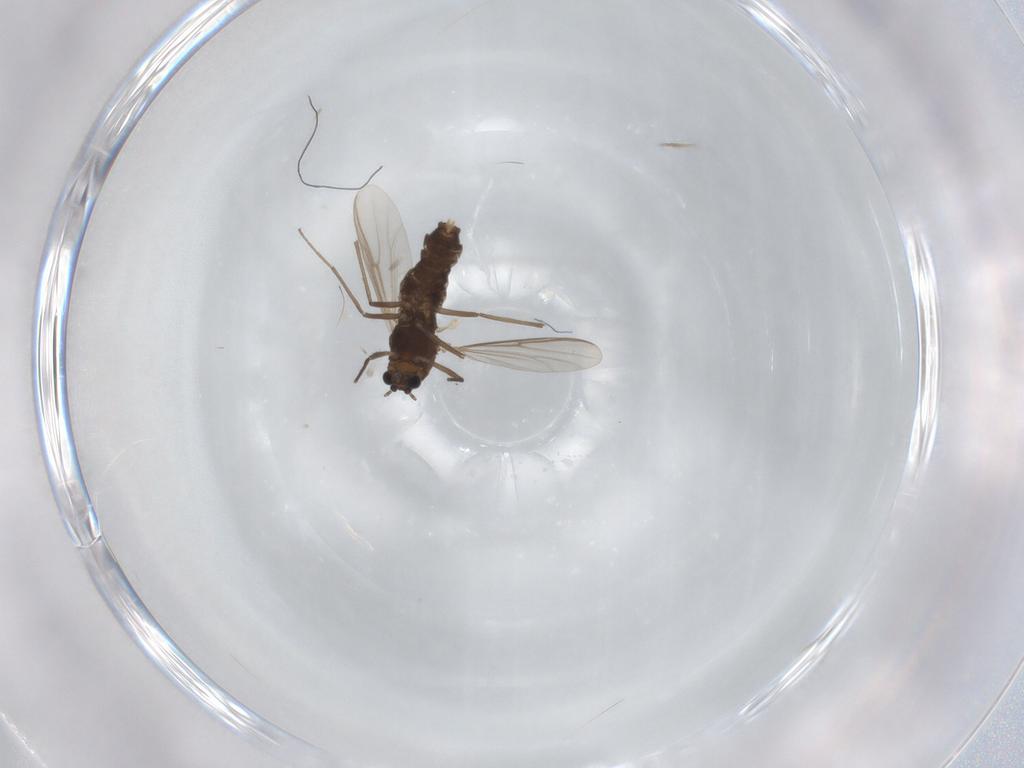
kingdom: Animalia
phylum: Arthropoda
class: Insecta
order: Diptera
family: Chironomidae
